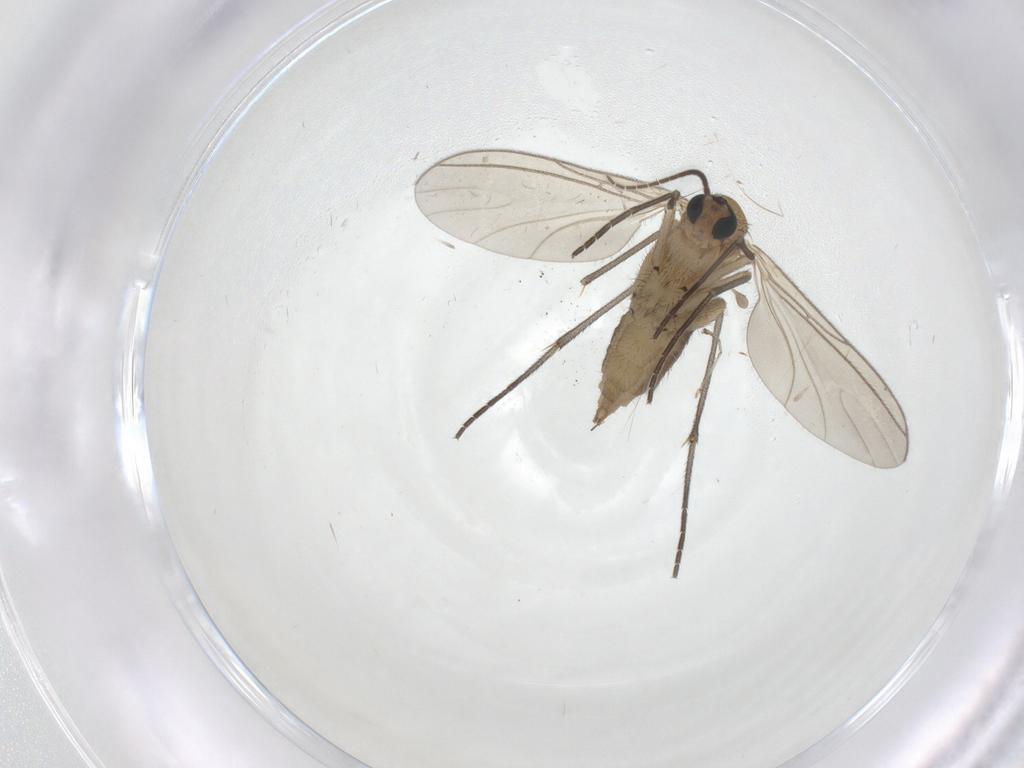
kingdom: Animalia
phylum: Arthropoda
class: Insecta
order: Diptera
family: Sciaridae
